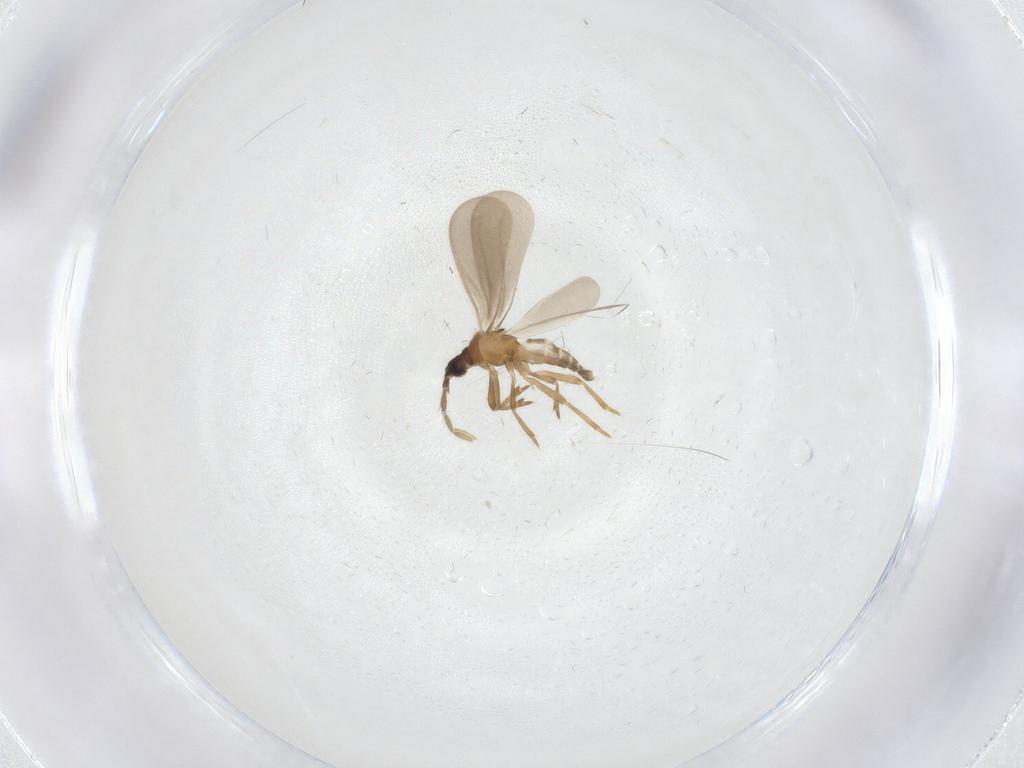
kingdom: Animalia
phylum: Arthropoda
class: Insecta
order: Diptera
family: Phoridae
